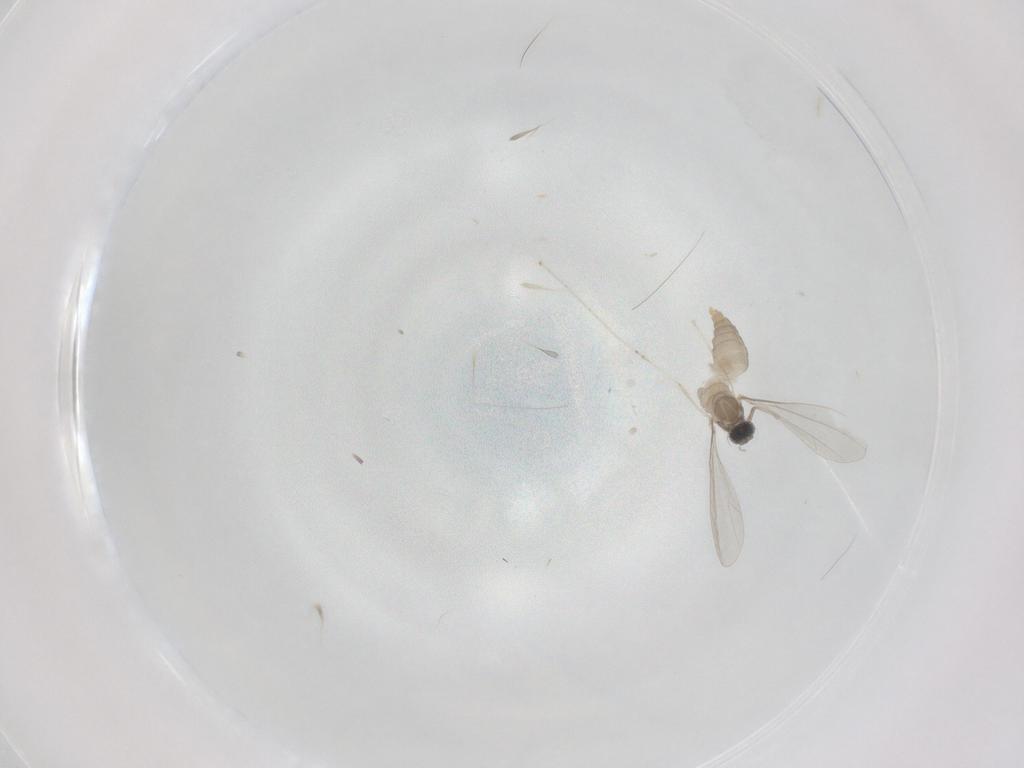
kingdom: Animalia
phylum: Arthropoda
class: Insecta
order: Diptera
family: Cecidomyiidae
